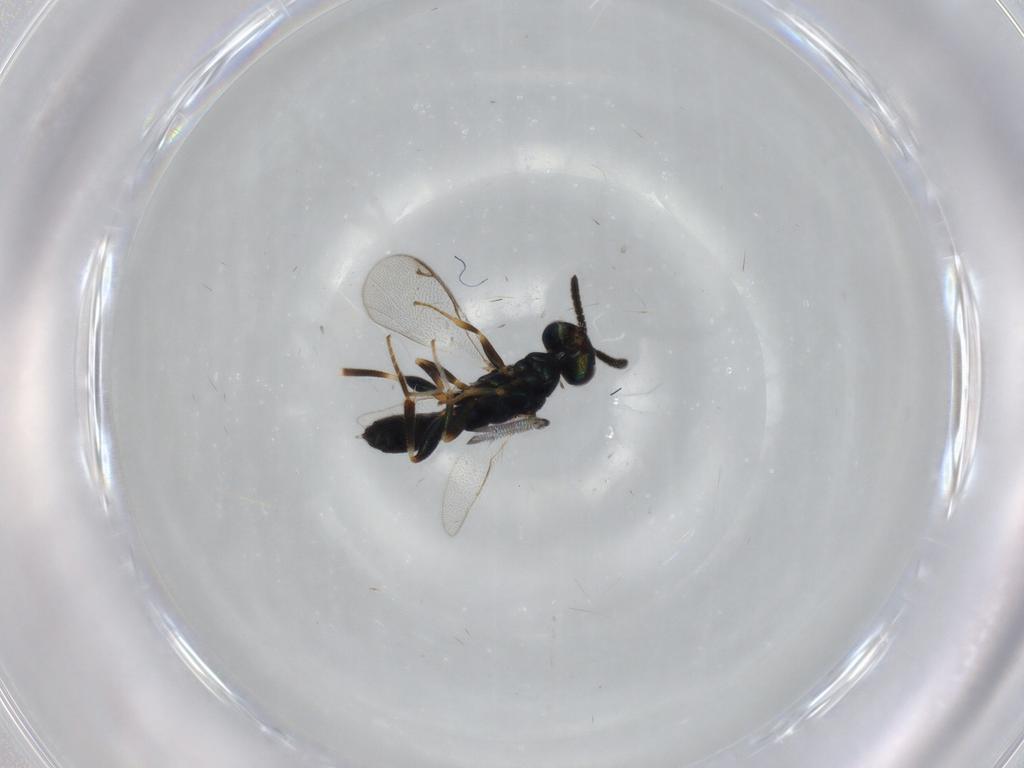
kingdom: Animalia
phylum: Arthropoda
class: Insecta
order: Hymenoptera
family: Cleonyminae
